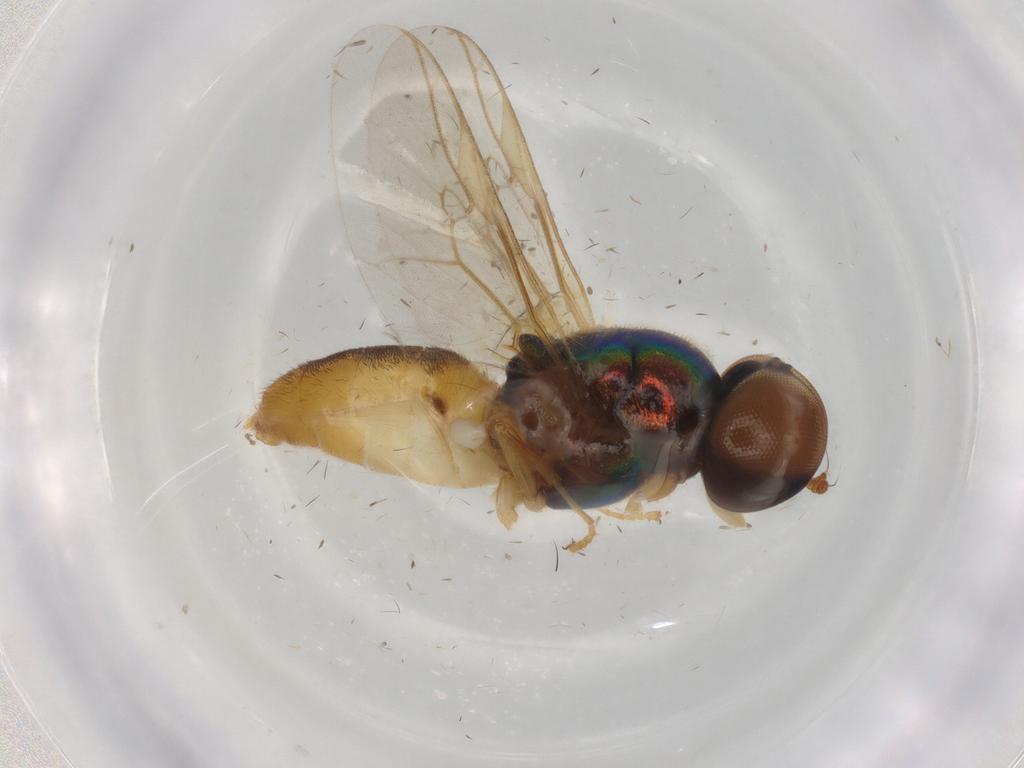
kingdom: Animalia
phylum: Arthropoda
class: Insecta
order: Diptera
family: Stratiomyidae
